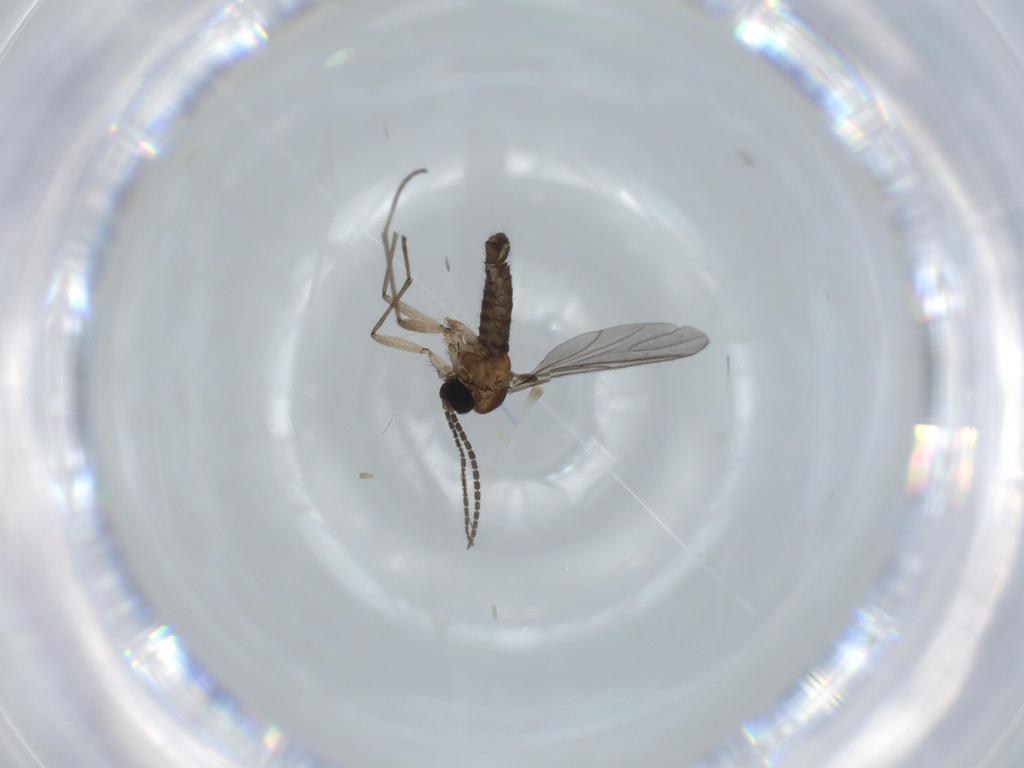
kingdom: Animalia
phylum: Arthropoda
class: Insecta
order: Diptera
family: Sciaridae
